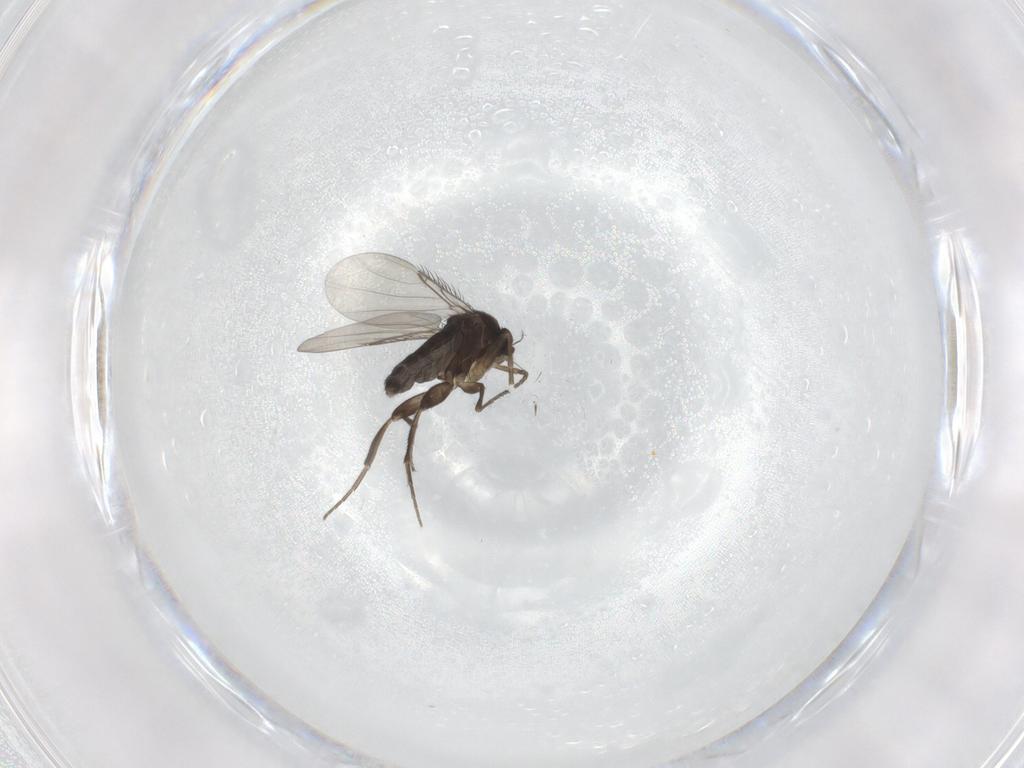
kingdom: Animalia
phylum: Arthropoda
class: Insecta
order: Diptera
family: Phoridae
